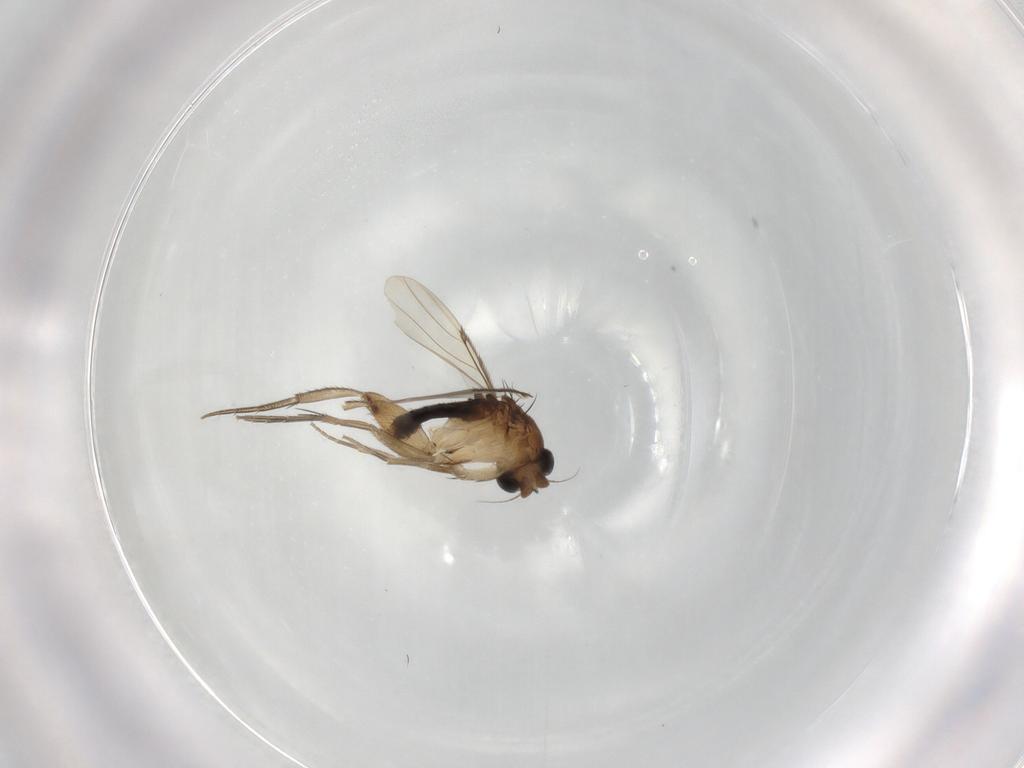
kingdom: Animalia
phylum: Arthropoda
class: Insecta
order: Diptera
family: Phoridae
